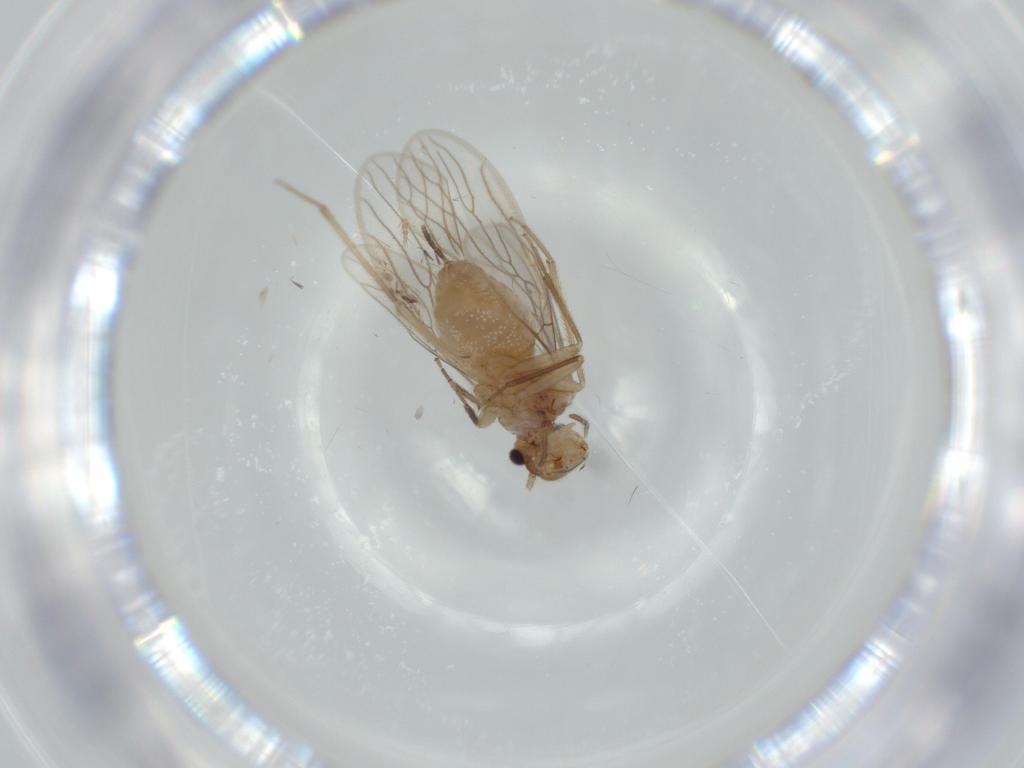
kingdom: Animalia
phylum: Arthropoda
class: Insecta
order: Psocodea
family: Cladiopsocidae
